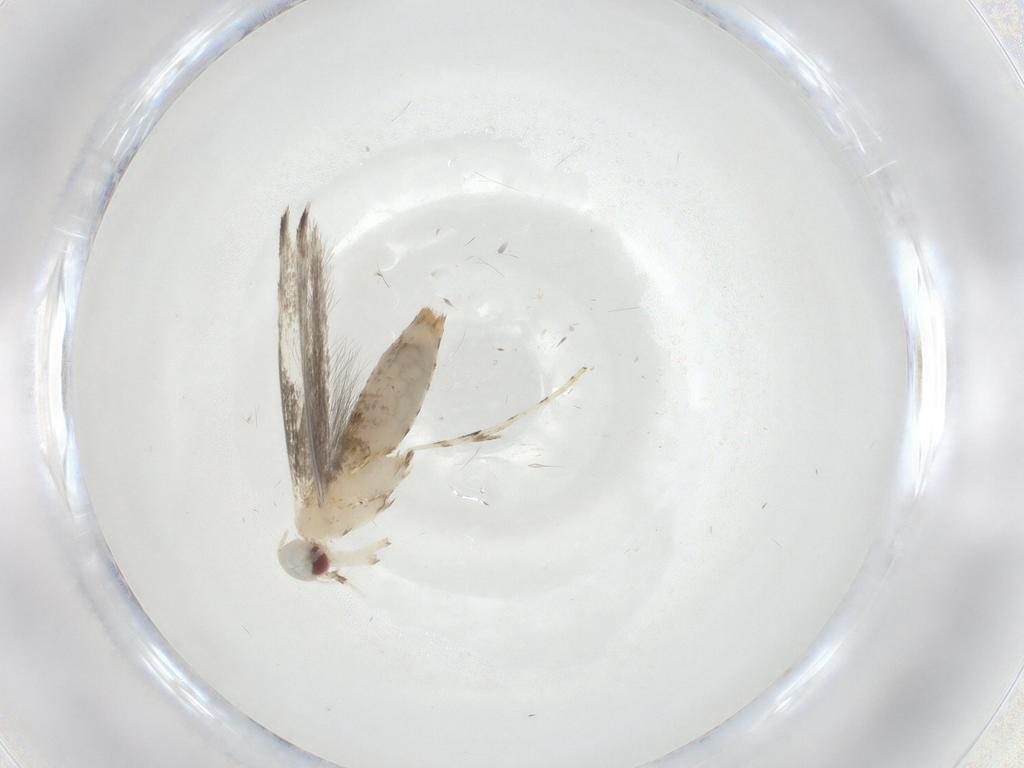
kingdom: Animalia
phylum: Arthropoda
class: Insecta
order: Lepidoptera
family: Gracillariidae
